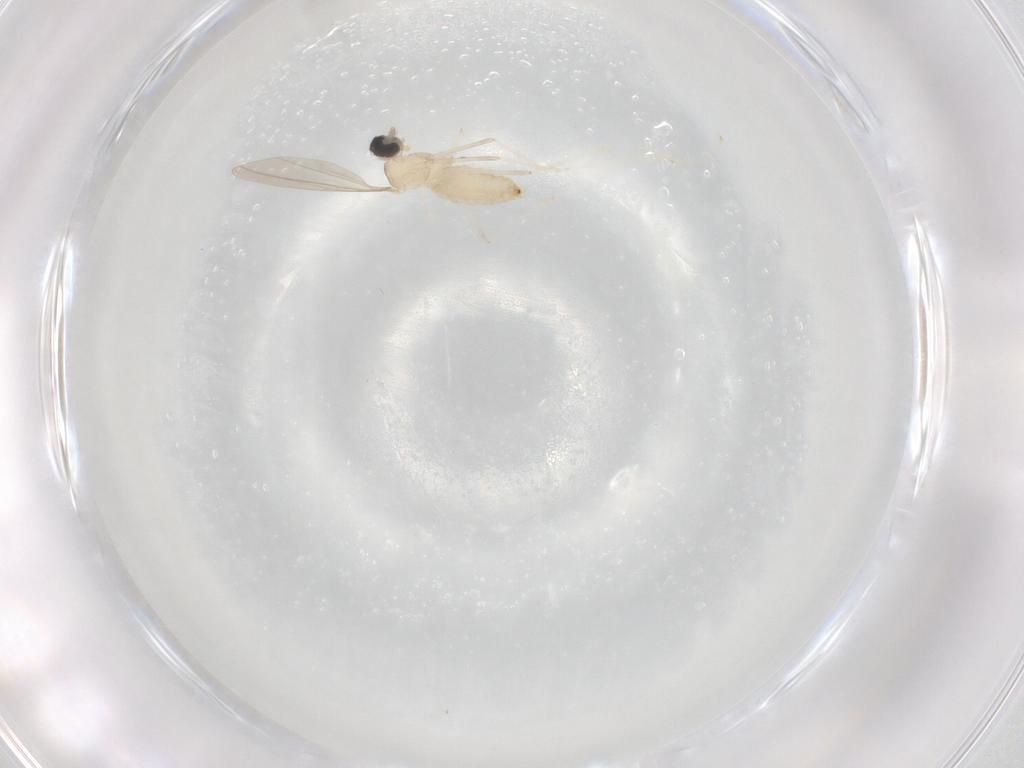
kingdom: Animalia
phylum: Arthropoda
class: Insecta
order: Diptera
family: Cecidomyiidae
